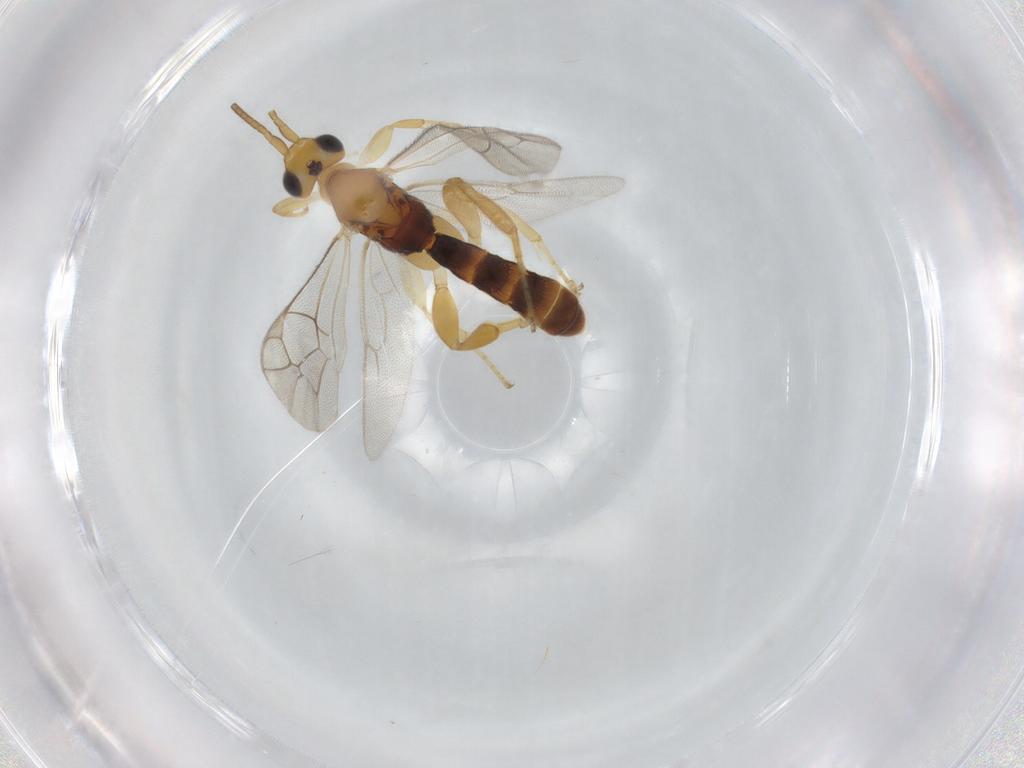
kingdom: Animalia
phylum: Arthropoda
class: Insecta
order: Hymenoptera
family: Ichneumonidae
